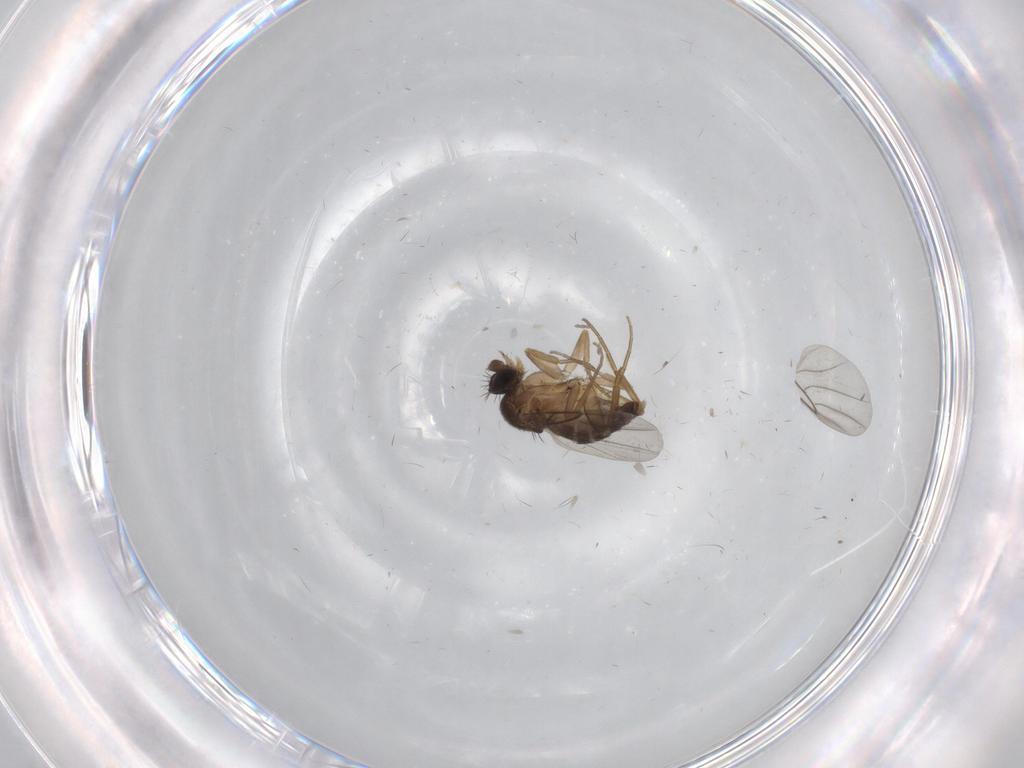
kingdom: Animalia
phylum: Arthropoda
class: Insecta
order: Diptera
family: Phoridae
